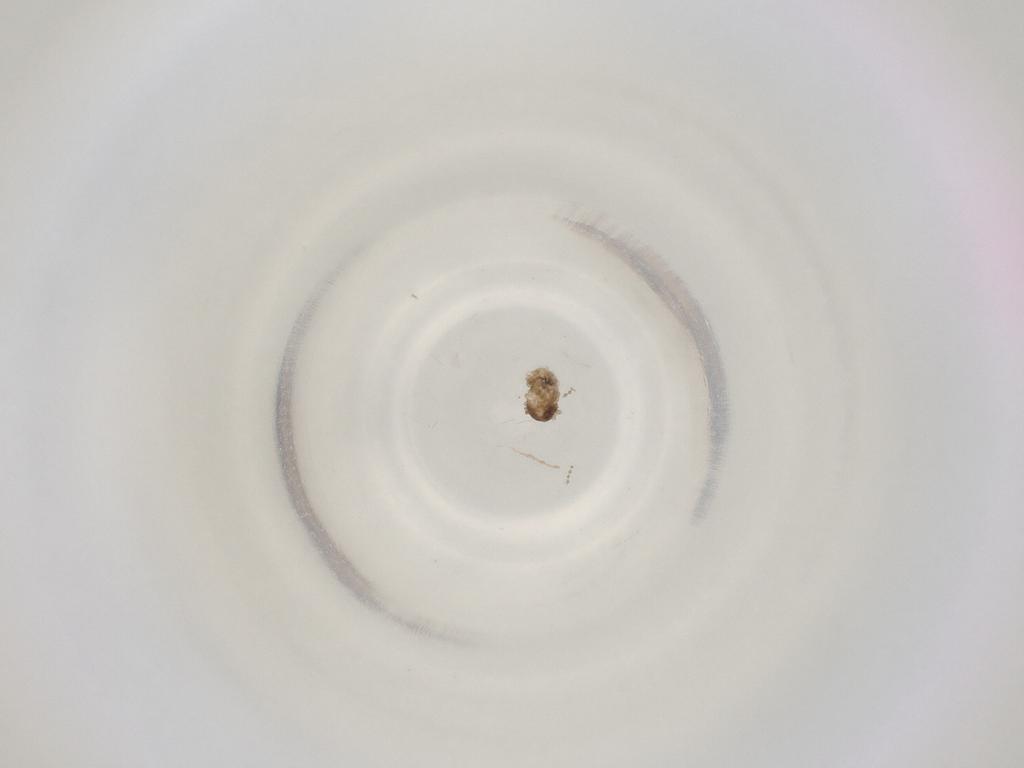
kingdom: Animalia
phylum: Arthropoda
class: Insecta
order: Diptera
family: Cecidomyiidae
